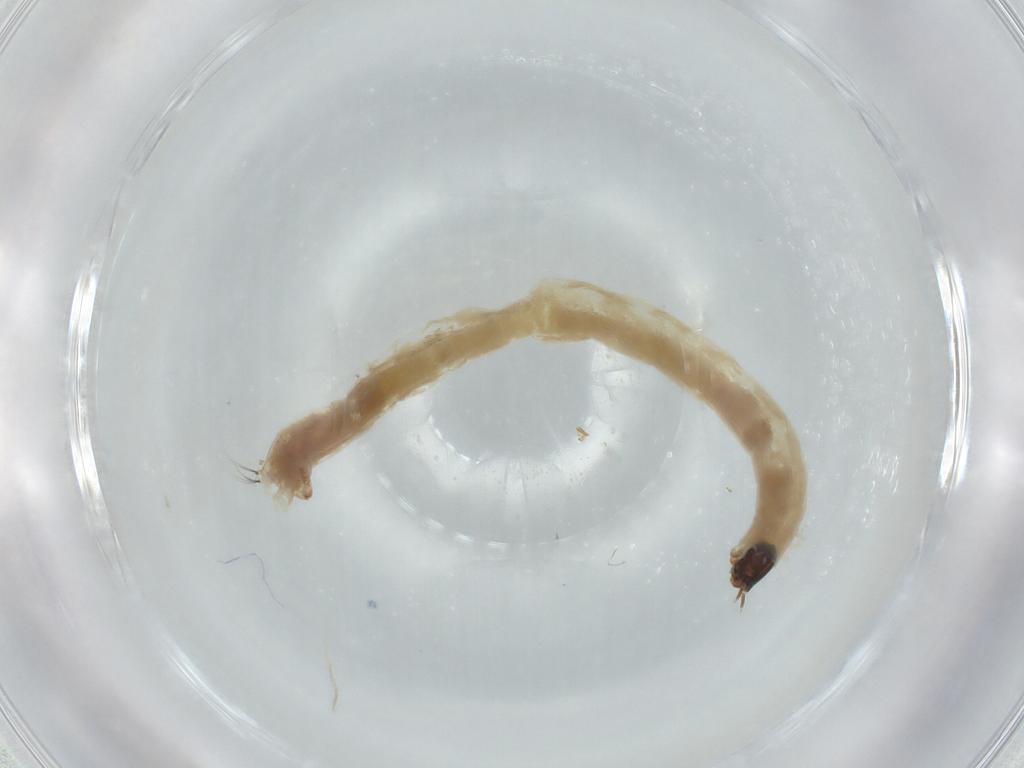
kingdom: Animalia
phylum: Arthropoda
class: Insecta
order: Diptera
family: Chironomidae
